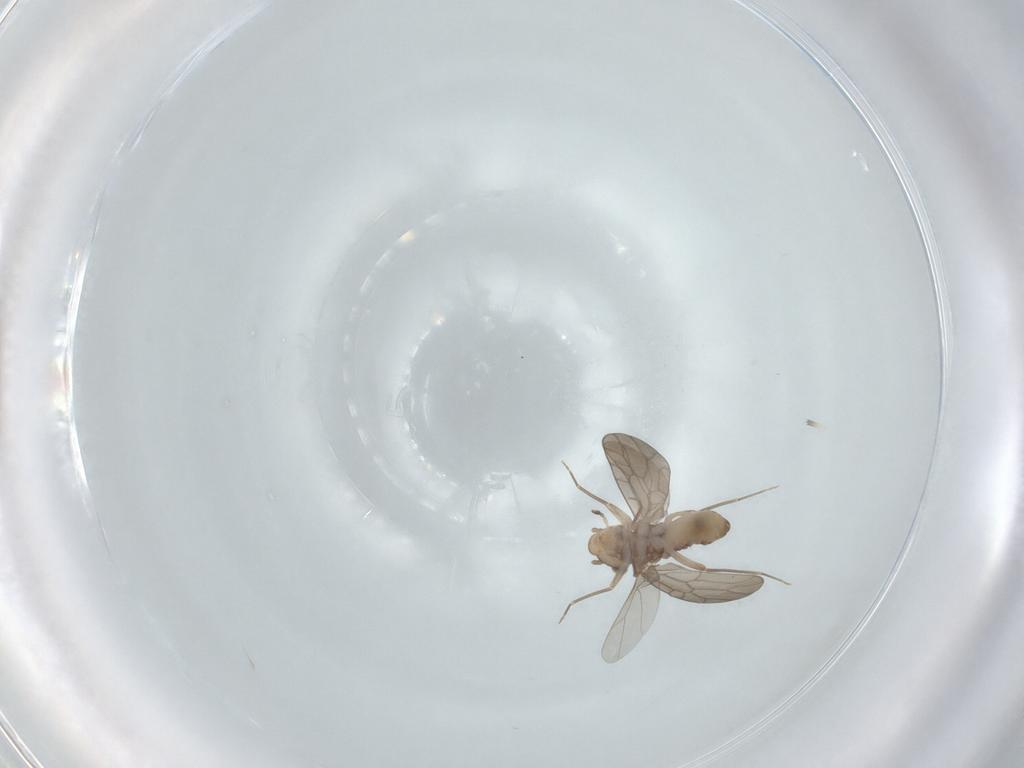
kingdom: Animalia
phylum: Arthropoda
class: Insecta
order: Psocodea
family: Lepidopsocidae
